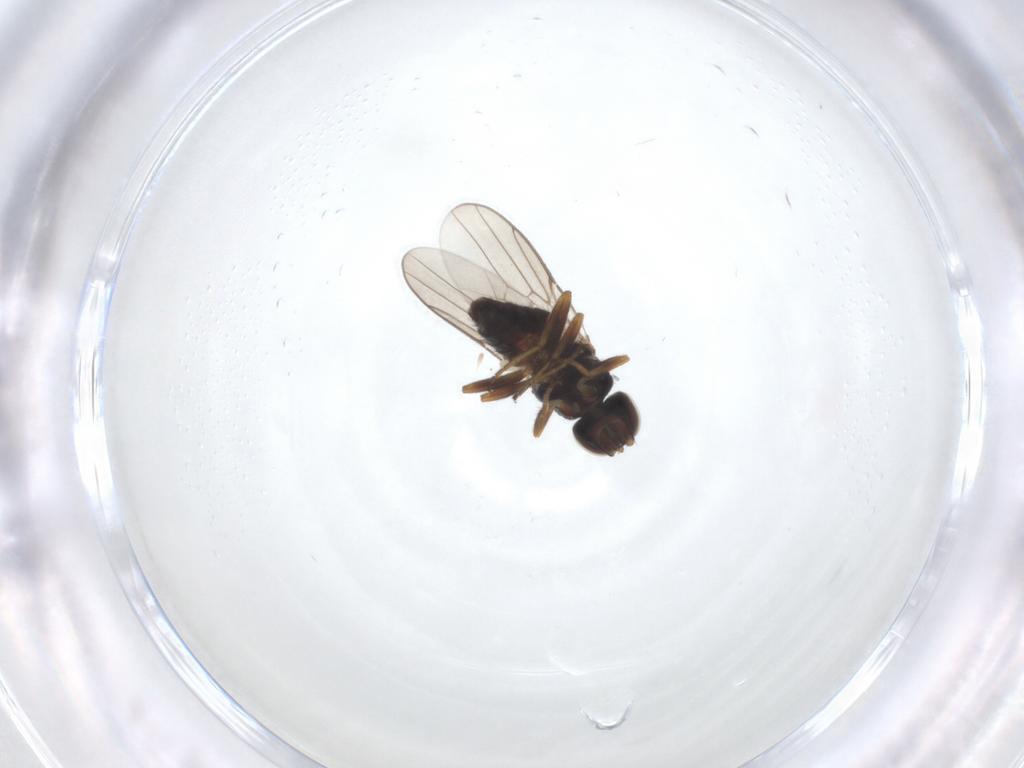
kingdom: Animalia
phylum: Arthropoda
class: Insecta
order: Diptera
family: Chloropidae
